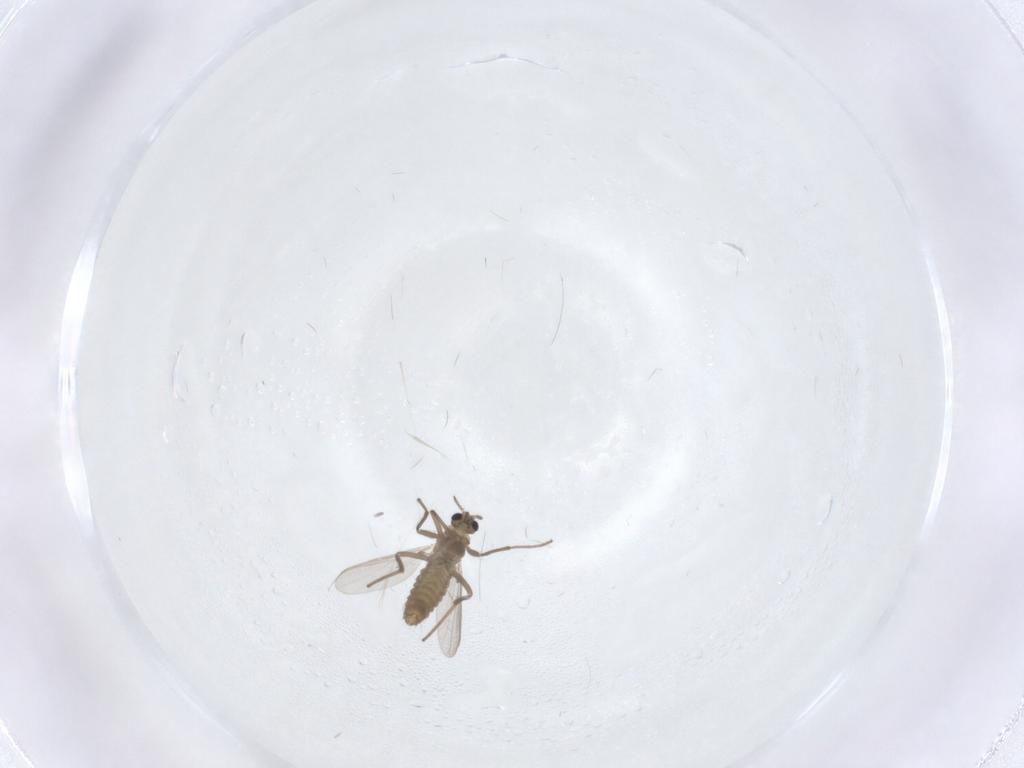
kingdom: Animalia
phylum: Arthropoda
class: Insecta
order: Diptera
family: Chironomidae
